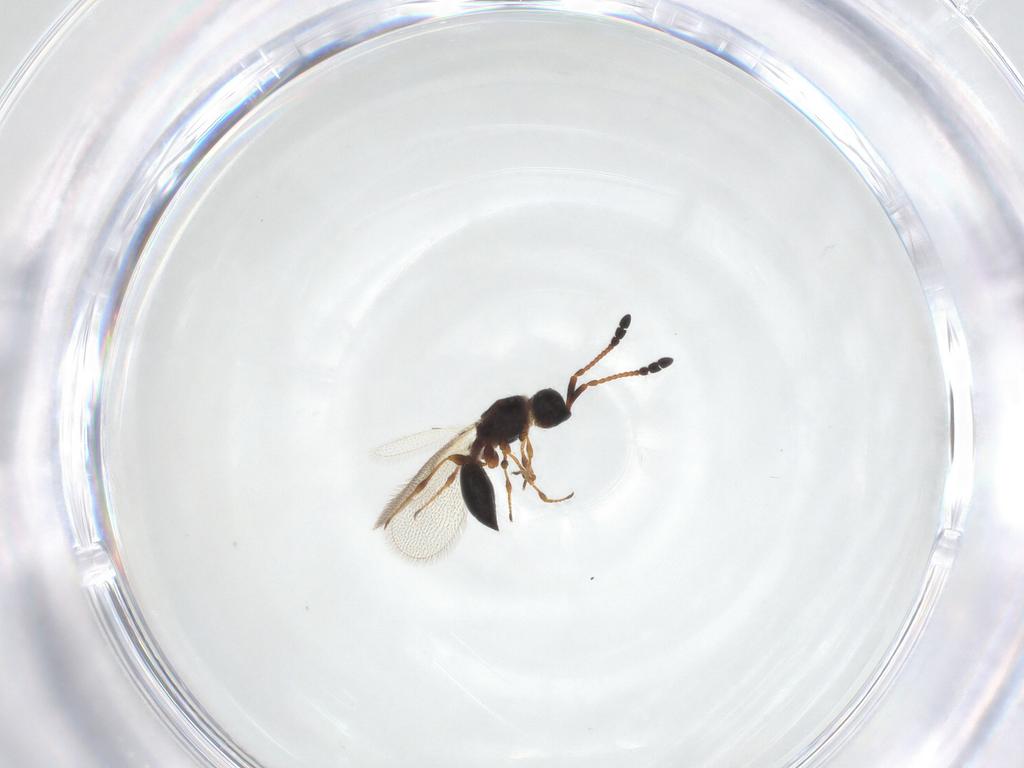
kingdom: Animalia
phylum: Arthropoda
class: Insecta
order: Hymenoptera
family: Diapriidae
